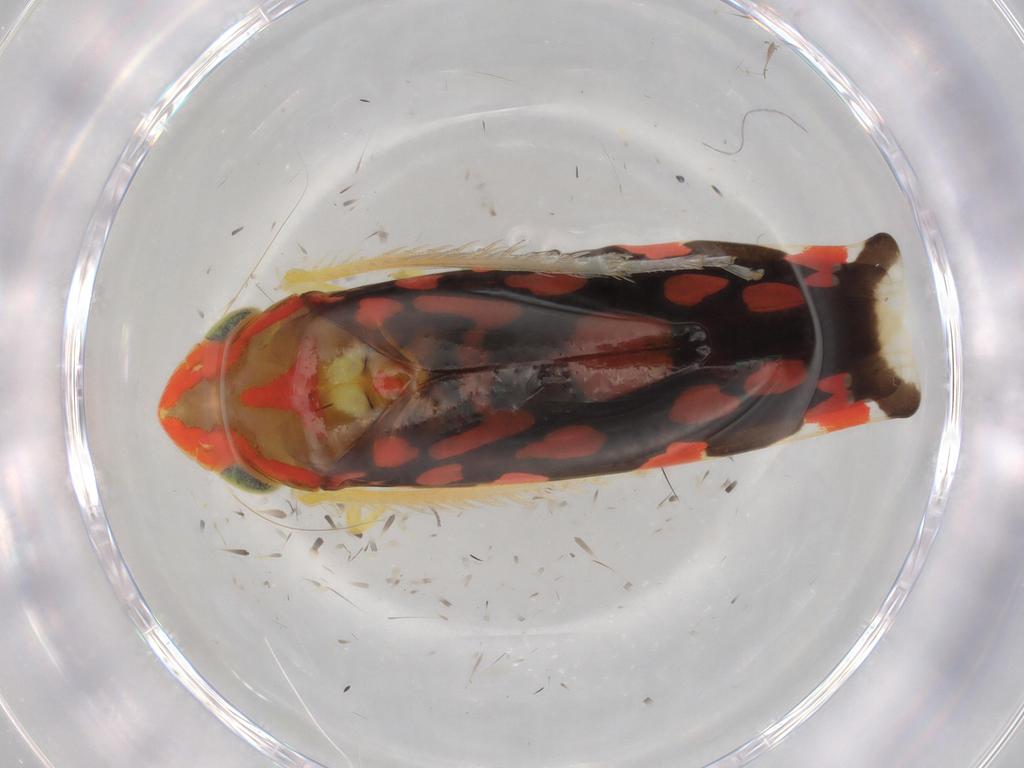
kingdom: Animalia
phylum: Arthropoda
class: Insecta
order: Hemiptera
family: Cicadellidae
